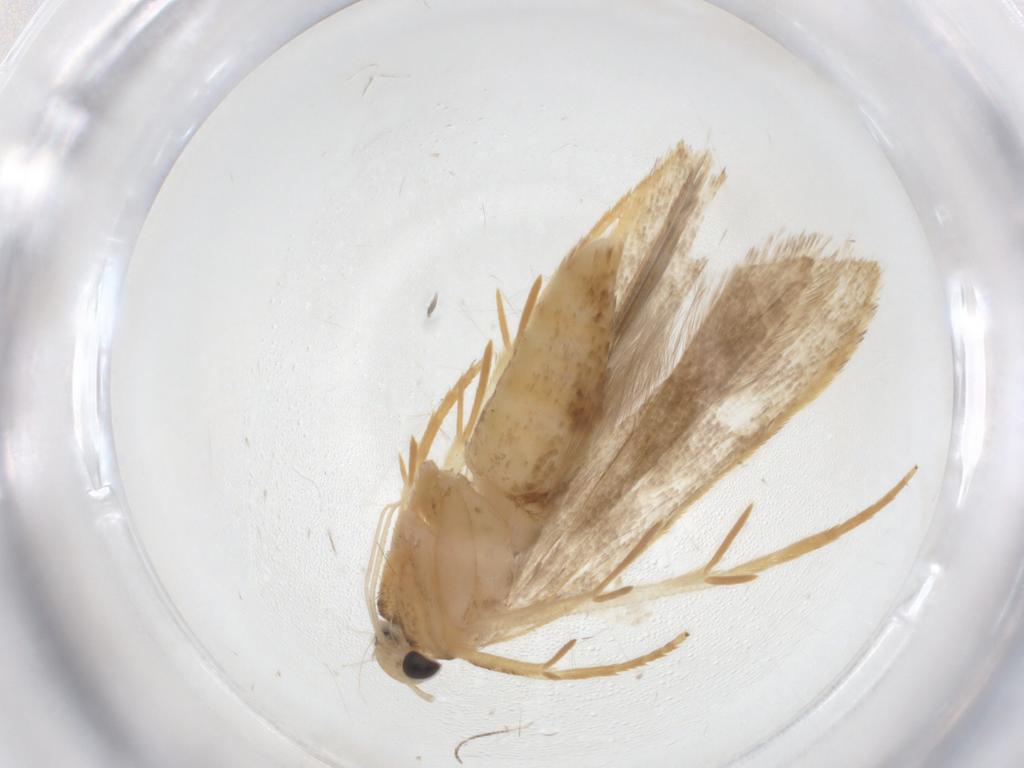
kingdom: Animalia
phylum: Arthropoda
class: Insecta
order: Lepidoptera
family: Gelechiidae
